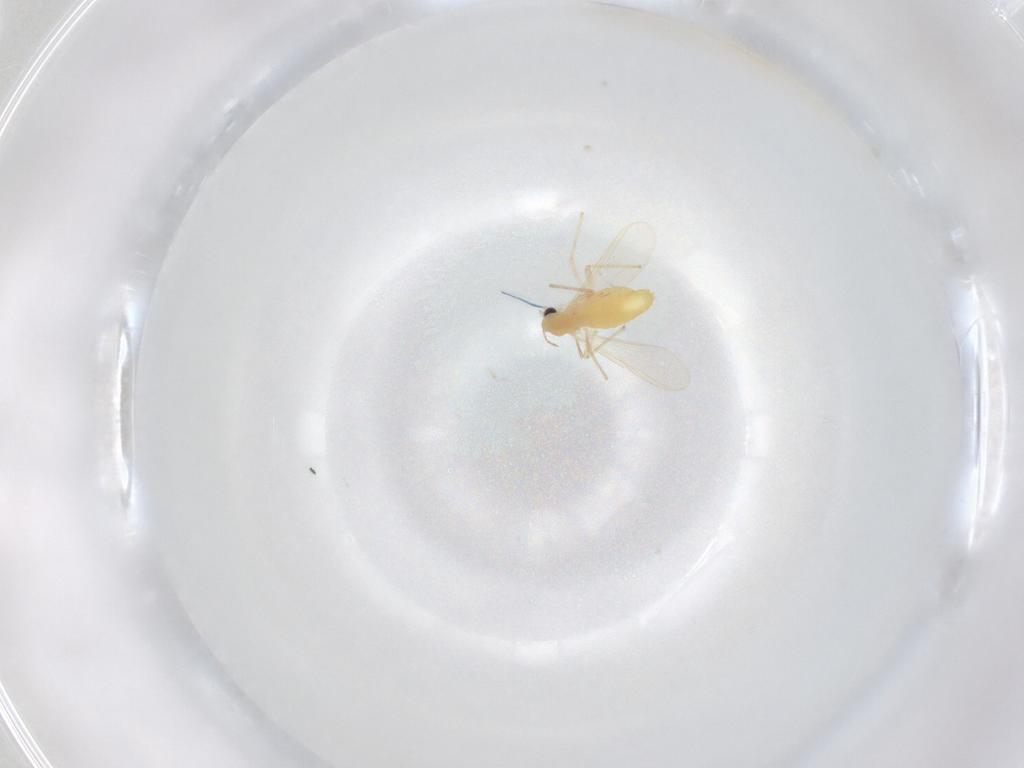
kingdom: Animalia
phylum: Arthropoda
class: Insecta
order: Diptera
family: Chironomidae
